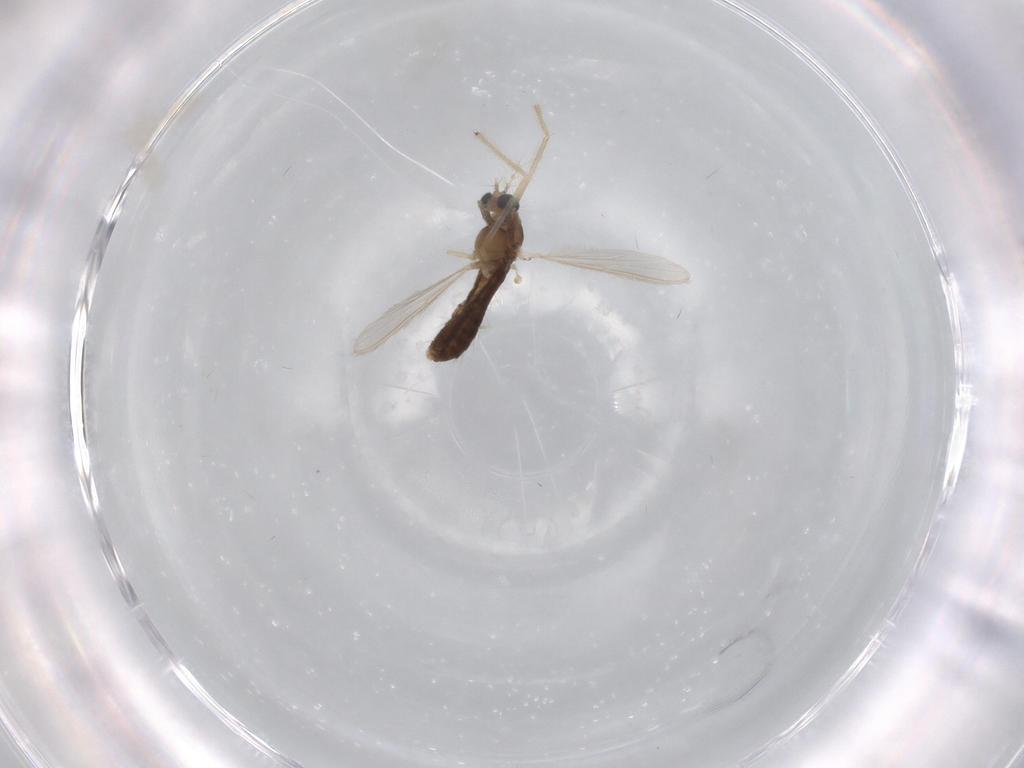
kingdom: Animalia
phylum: Arthropoda
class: Insecta
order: Diptera
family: Chironomidae
